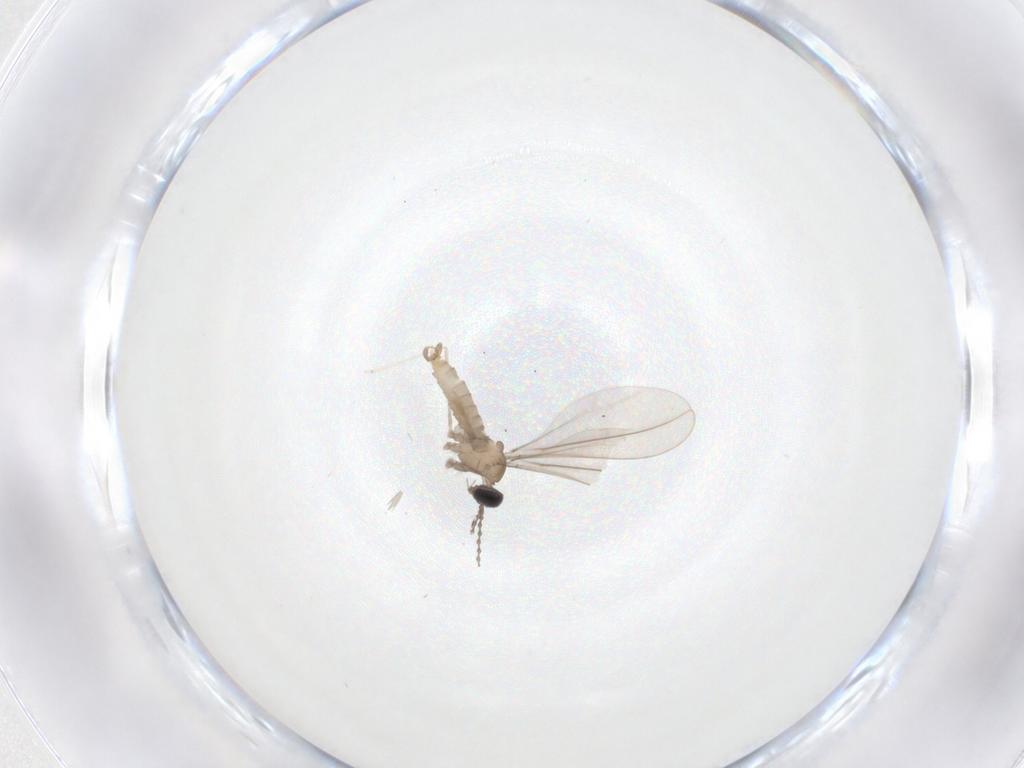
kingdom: Animalia
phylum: Arthropoda
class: Insecta
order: Diptera
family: Cecidomyiidae
